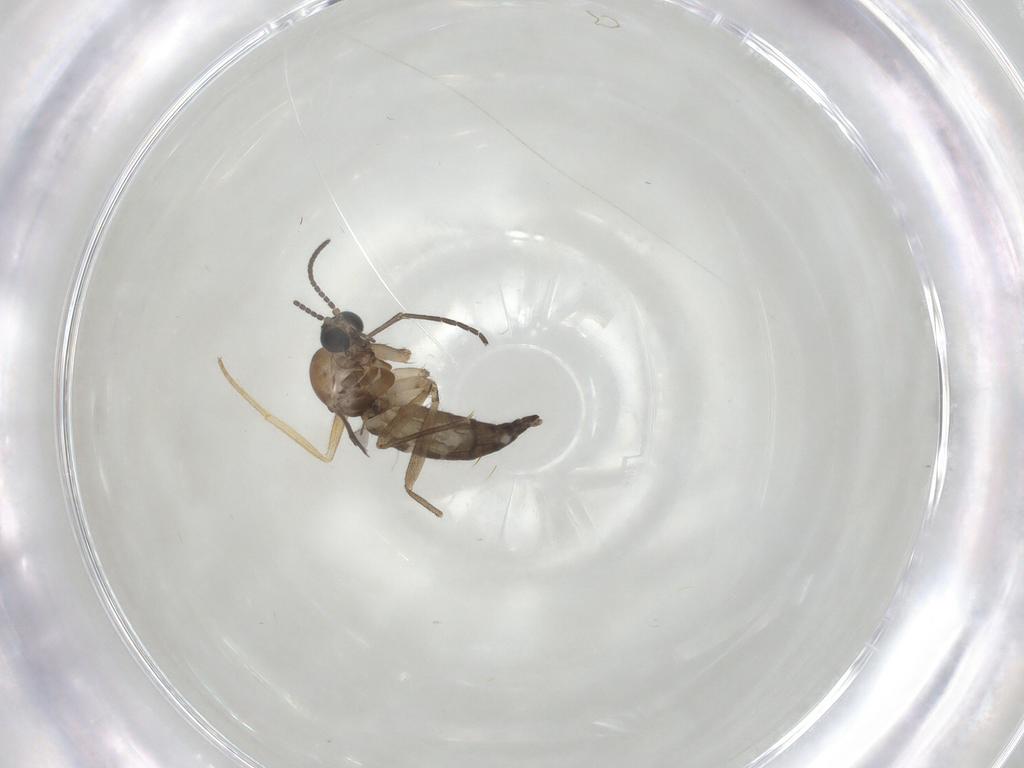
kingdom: Animalia
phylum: Arthropoda
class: Insecta
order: Diptera
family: Sciaridae
